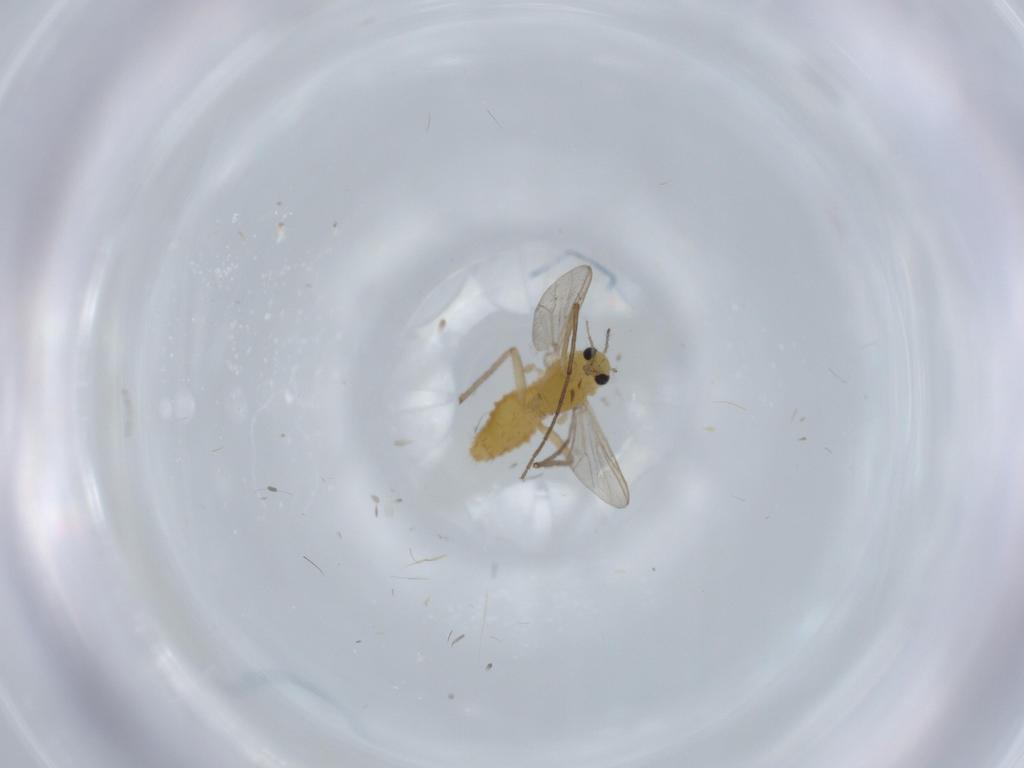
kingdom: Animalia
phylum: Arthropoda
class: Insecta
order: Diptera
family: Chironomidae
